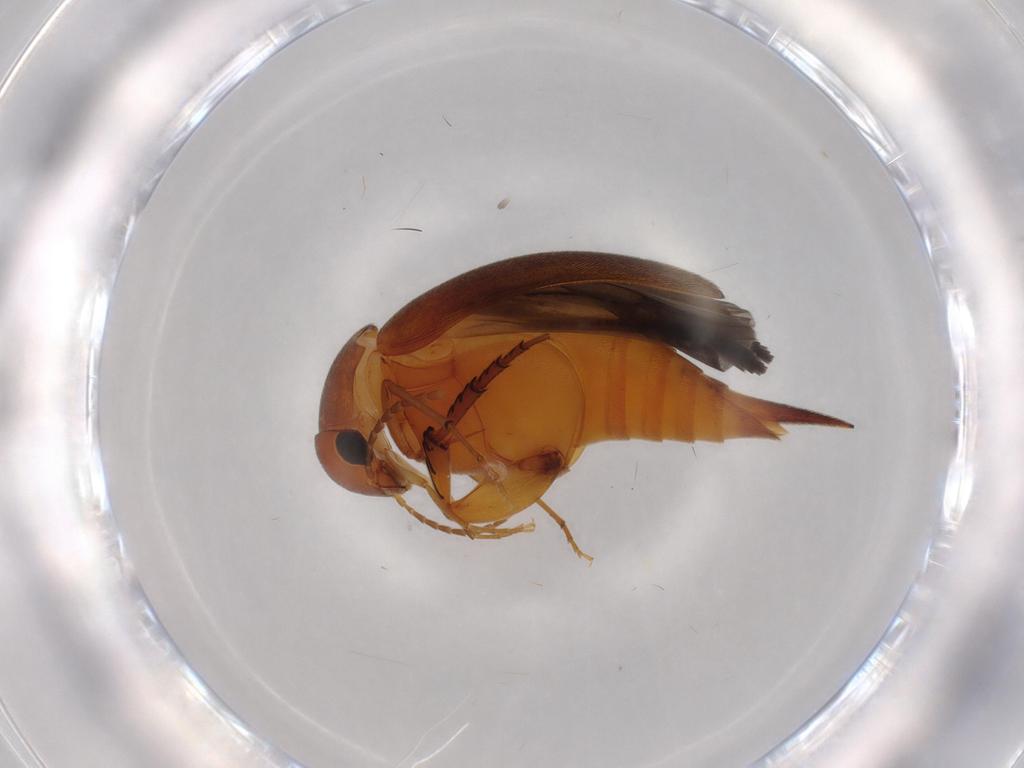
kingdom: Animalia
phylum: Arthropoda
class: Insecta
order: Coleoptera
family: Mordellidae
